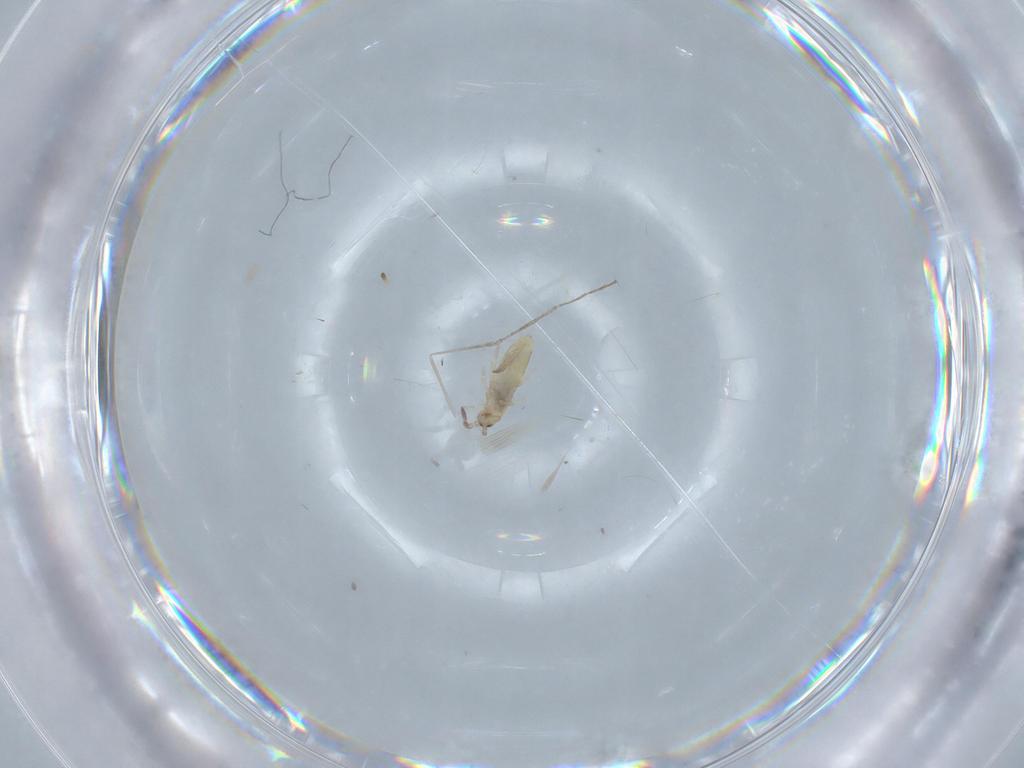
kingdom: Animalia
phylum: Arthropoda
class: Collembola
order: Entomobryomorpha
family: Entomobryidae
